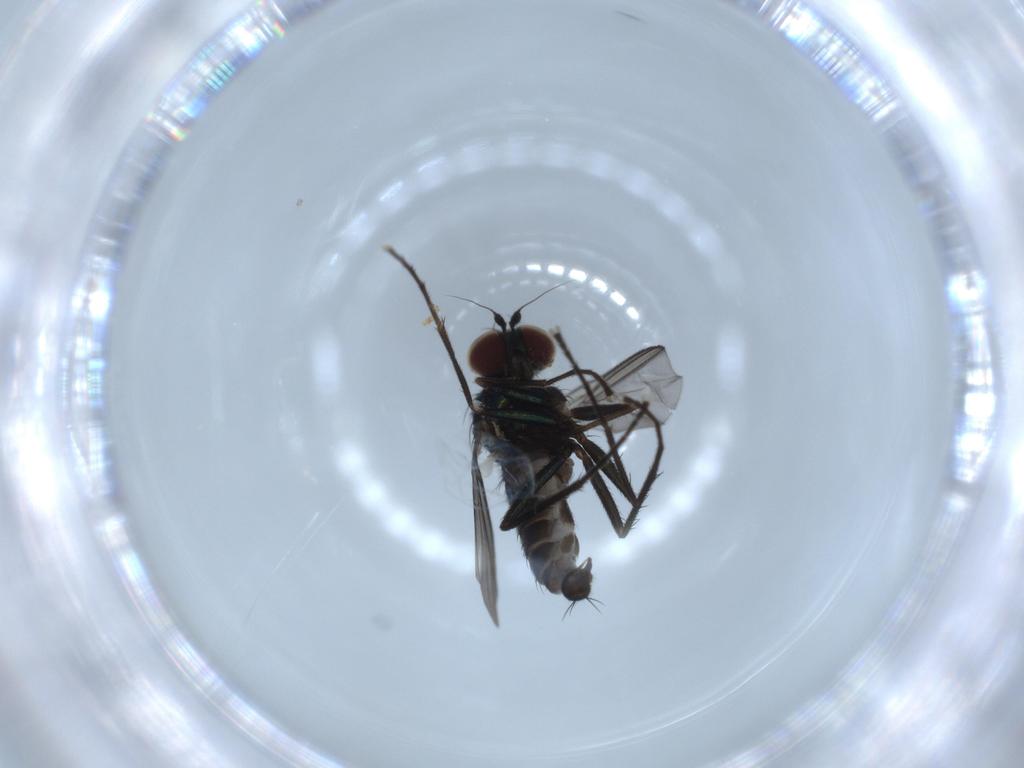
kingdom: Animalia
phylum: Arthropoda
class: Insecta
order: Diptera
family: Dolichopodidae
